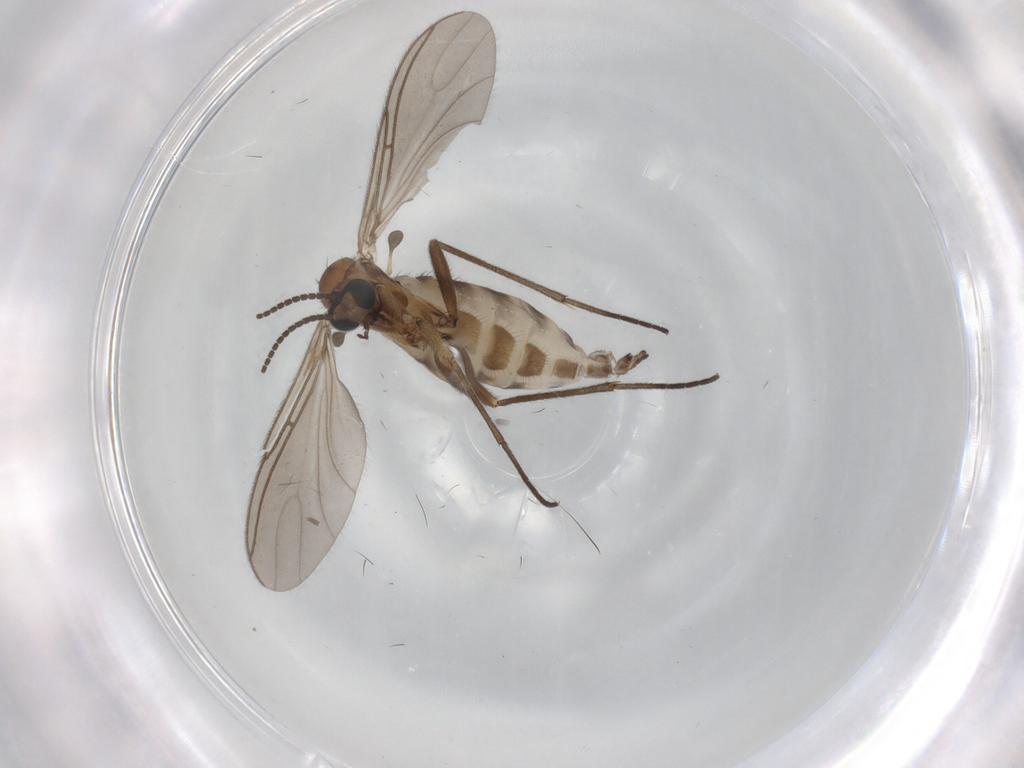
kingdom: Animalia
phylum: Arthropoda
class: Insecta
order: Diptera
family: Sciaridae
